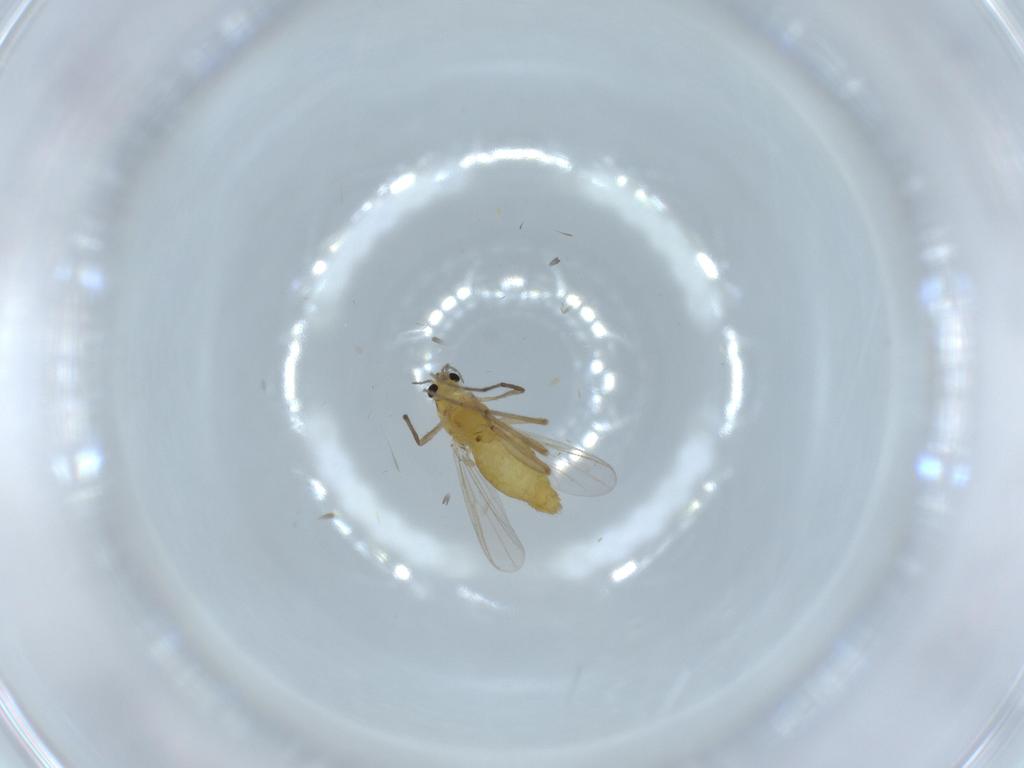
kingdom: Animalia
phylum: Arthropoda
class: Insecta
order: Diptera
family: Chironomidae
